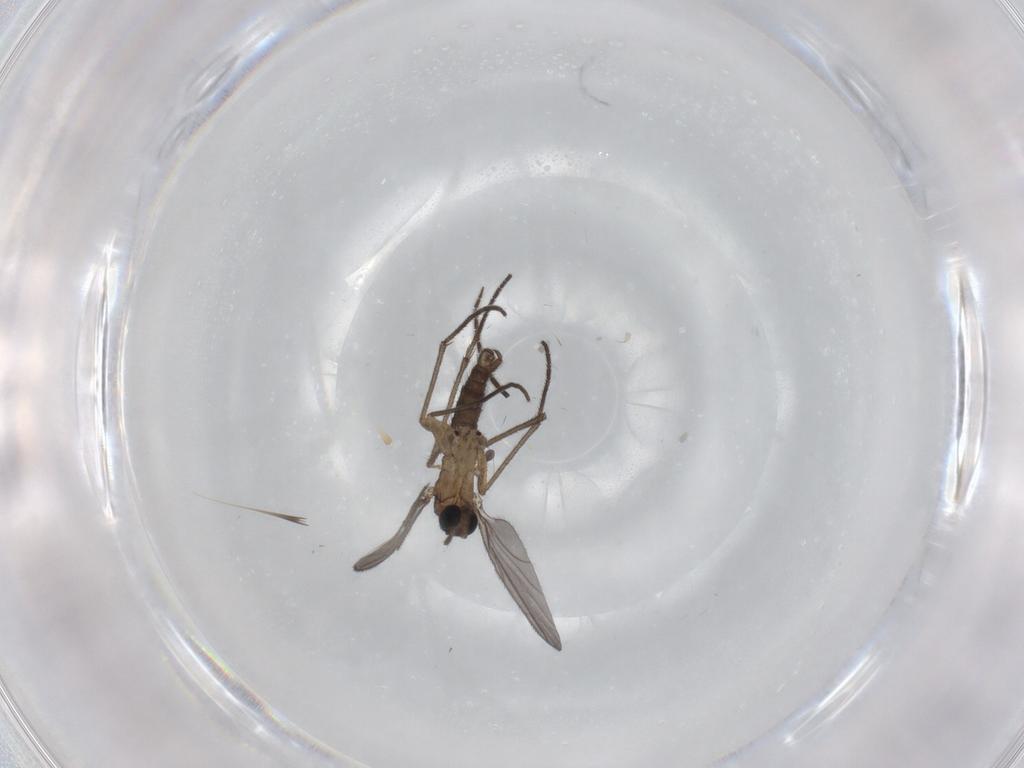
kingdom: Animalia
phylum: Arthropoda
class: Insecta
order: Diptera
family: Sciaridae
